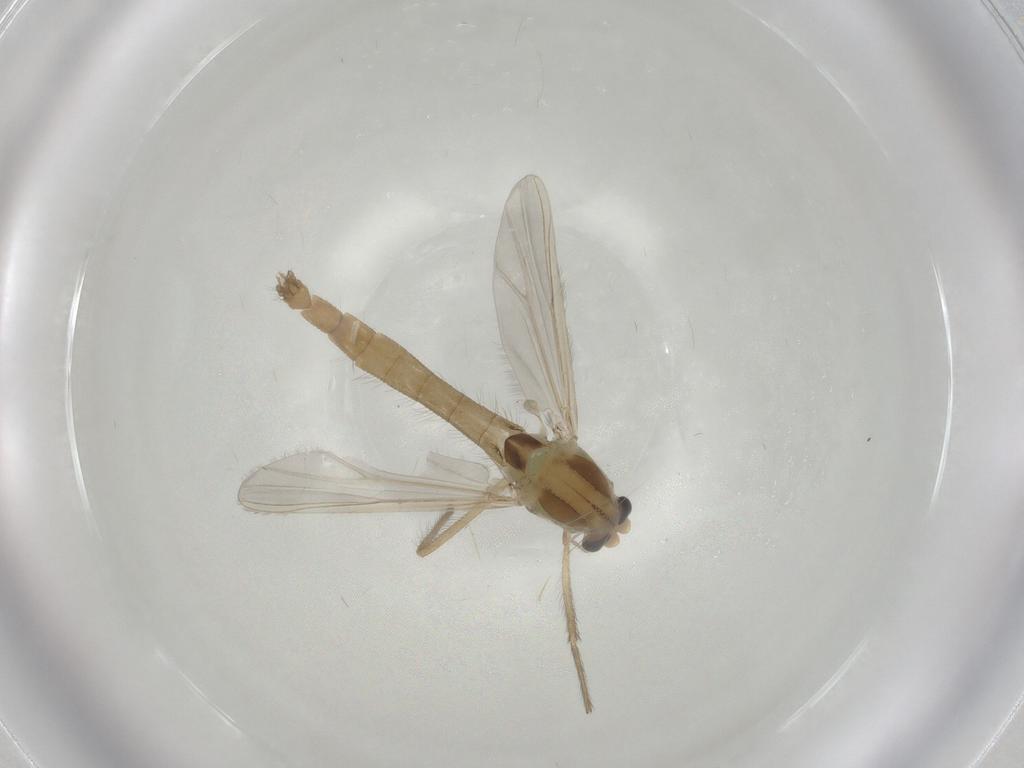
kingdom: Animalia
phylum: Arthropoda
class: Insecta
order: Diptera
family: Chironomidae
